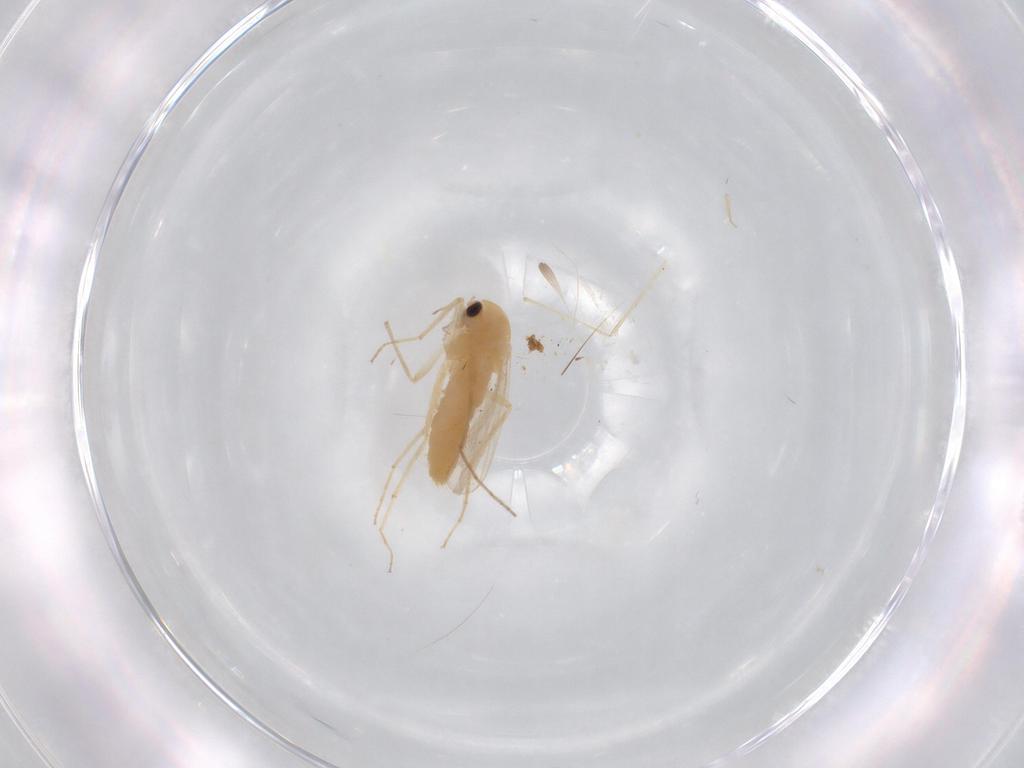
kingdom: Animalia
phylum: Arthropoda
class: Insecta
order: Diptera
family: Chironomidae
